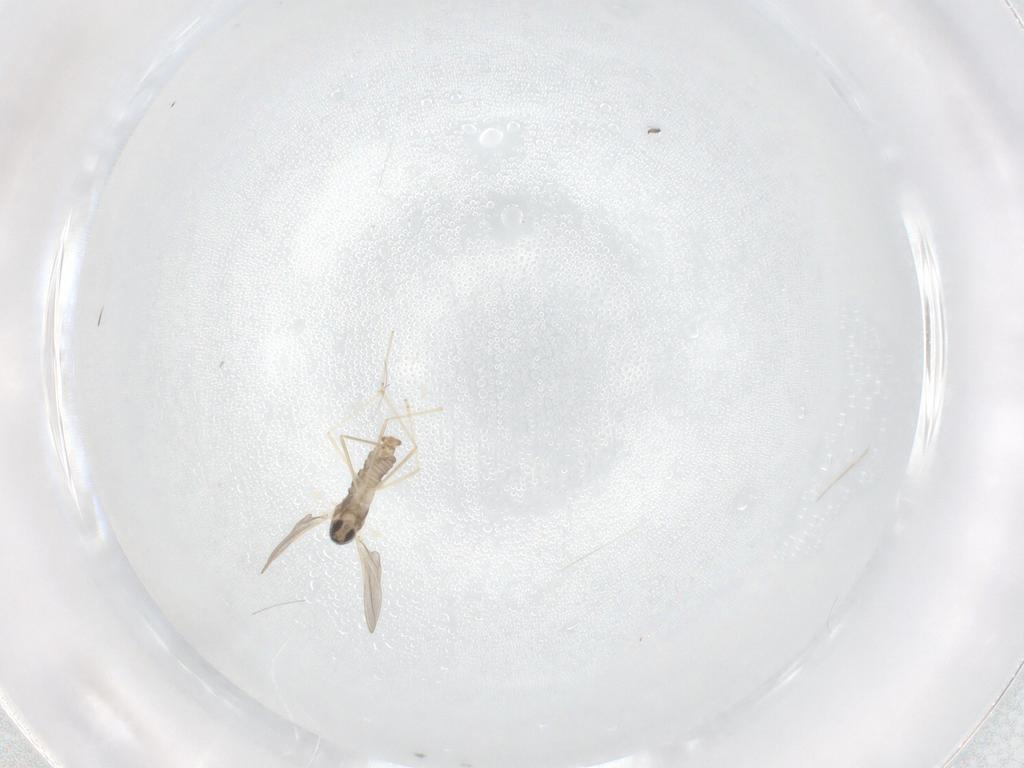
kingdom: Animalia
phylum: Arthropoda
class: Insecta
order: Diptera
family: Cecidomyiidae
